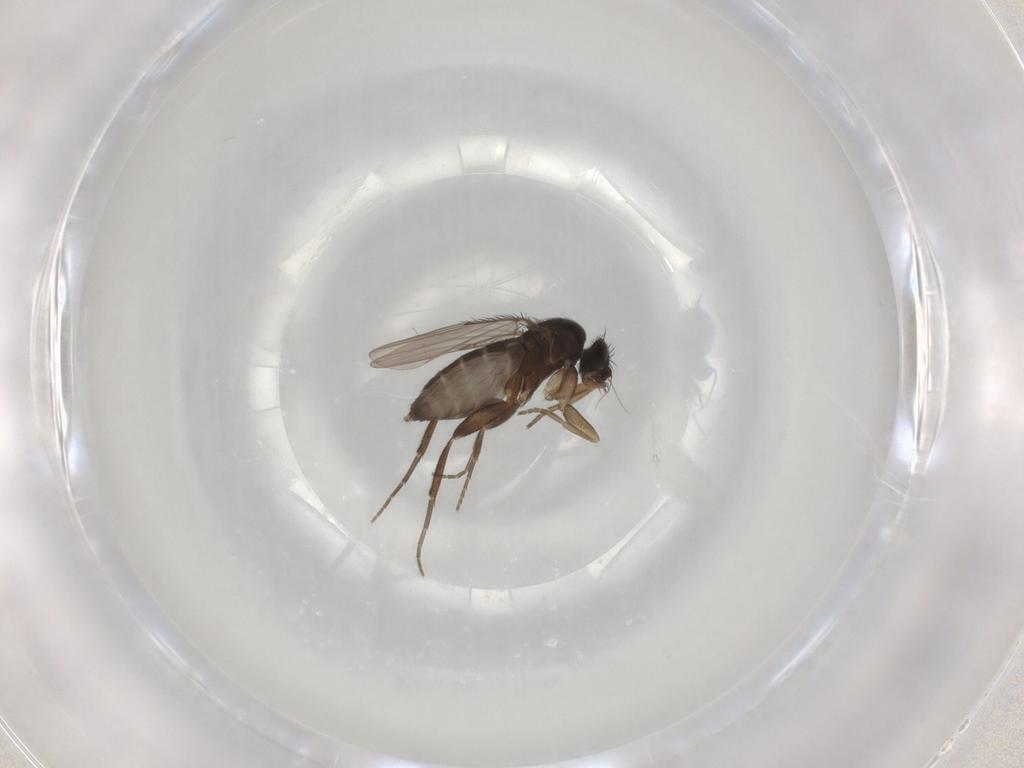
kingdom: Animalia
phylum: Arthropoda
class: Insecta
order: Diptera
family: Phoridae
